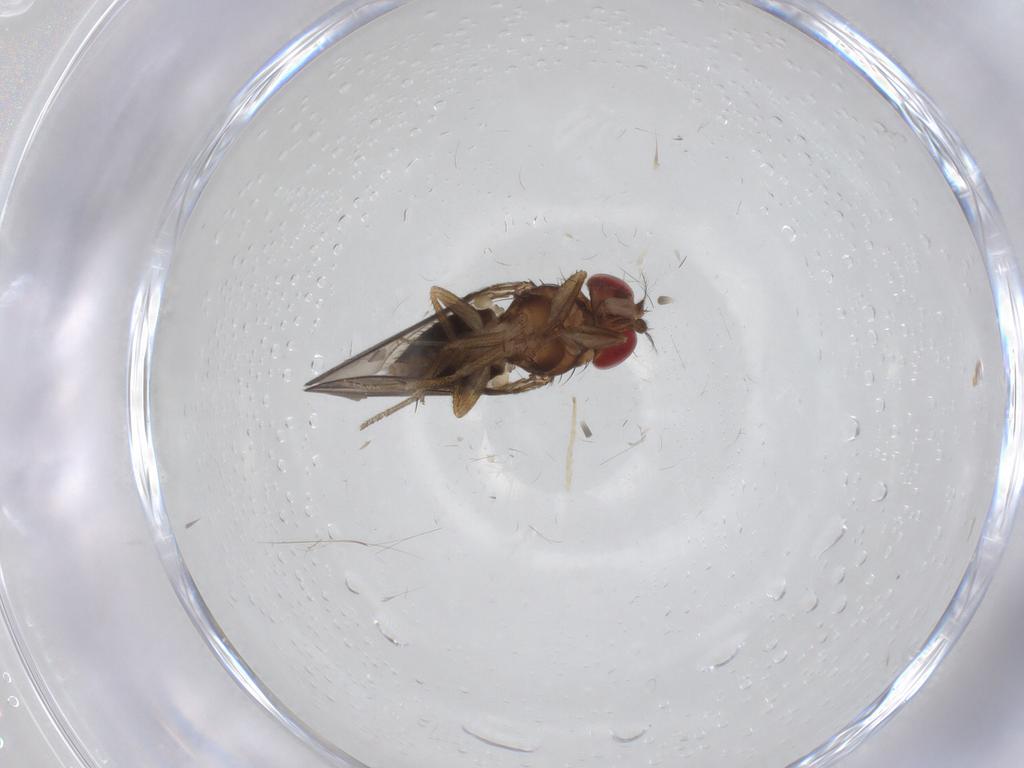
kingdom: Animalia
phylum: Arthropoda
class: Insecta
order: Diptera
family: Drosophilidae
